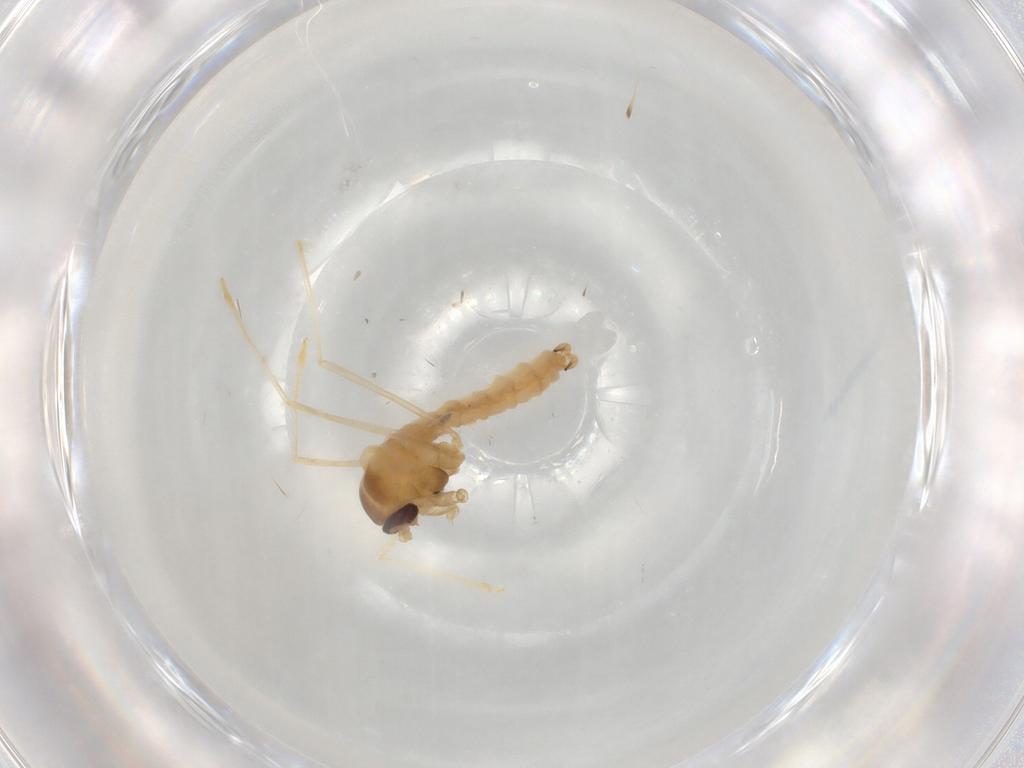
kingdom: Animalia
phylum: Arthropoda
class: Insecta
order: Diptera
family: Cecidomyiidae
